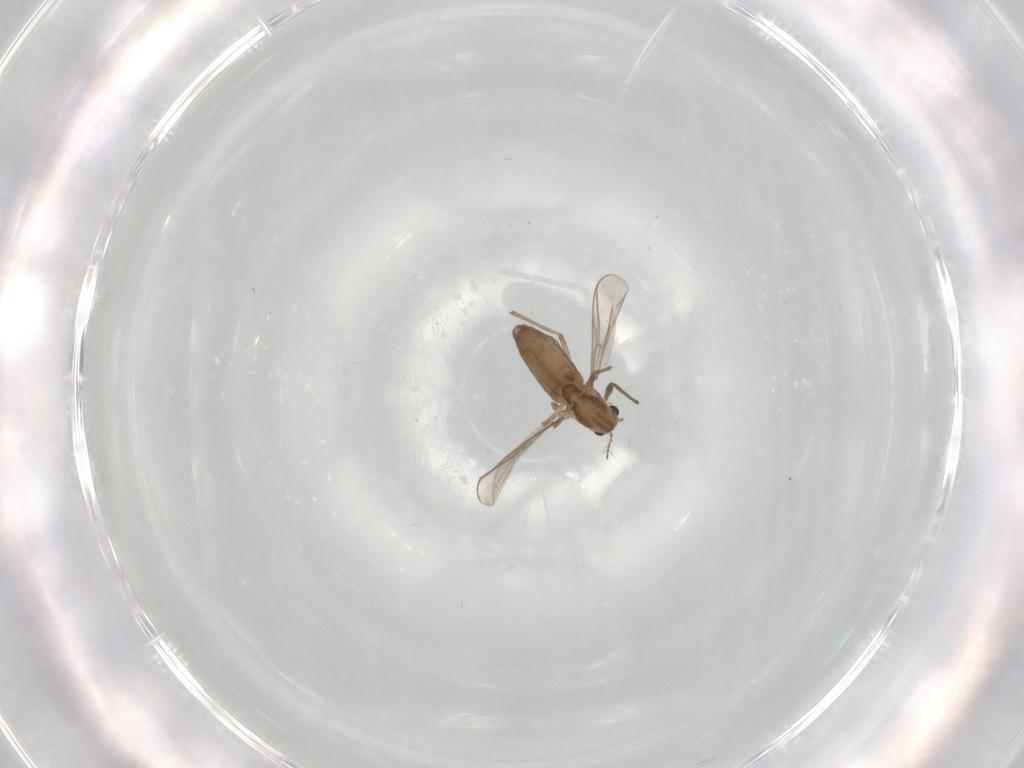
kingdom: Animalia
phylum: Arthropoda
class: Insecta
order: Diptera
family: Chironomidae
